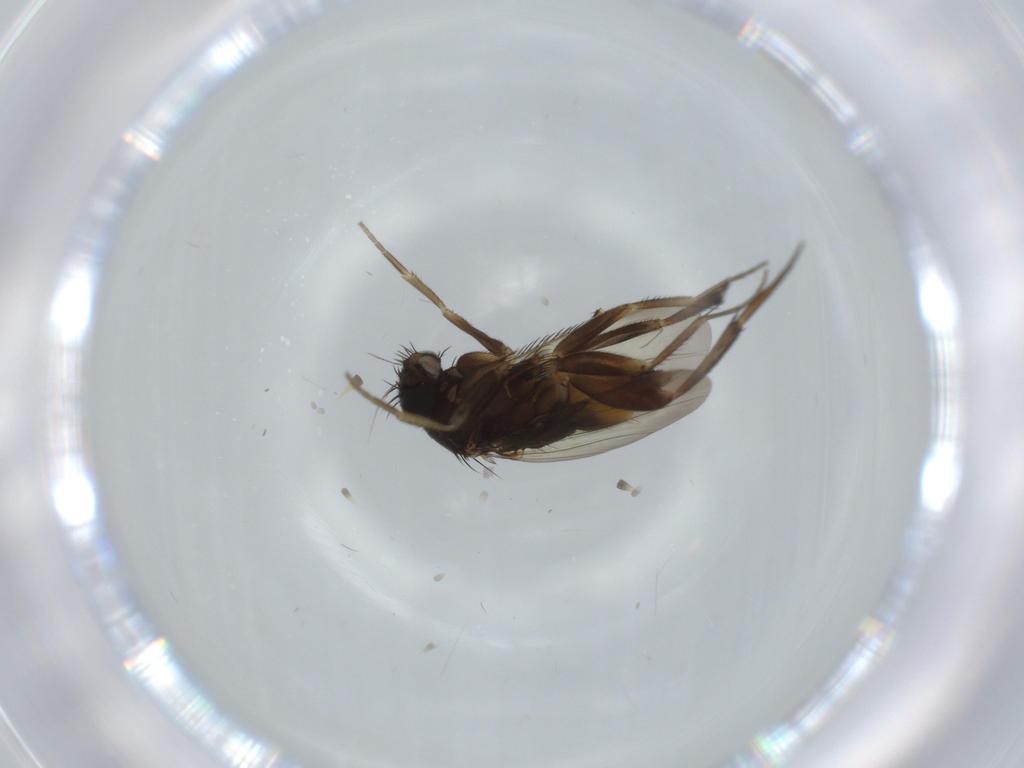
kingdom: Animalia
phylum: Arthropoda
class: Insecta
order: Diptera
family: Phoridae
